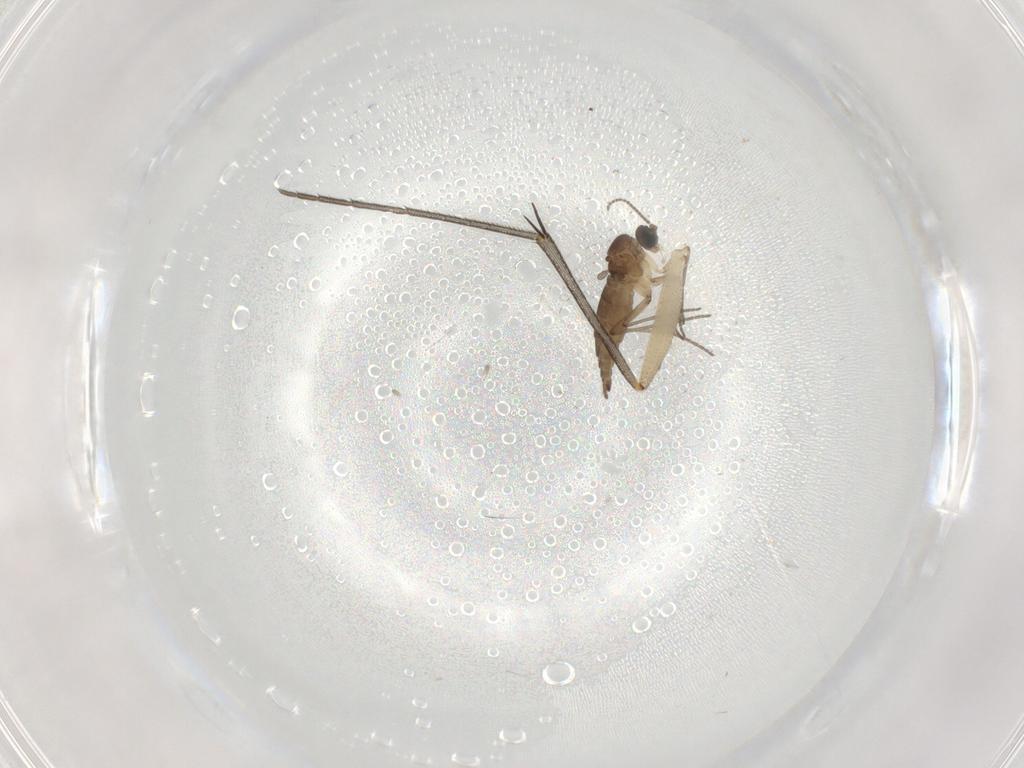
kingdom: Animalia
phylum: Arthropoda
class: Insecta
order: Diptera
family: Mycetophilidae
